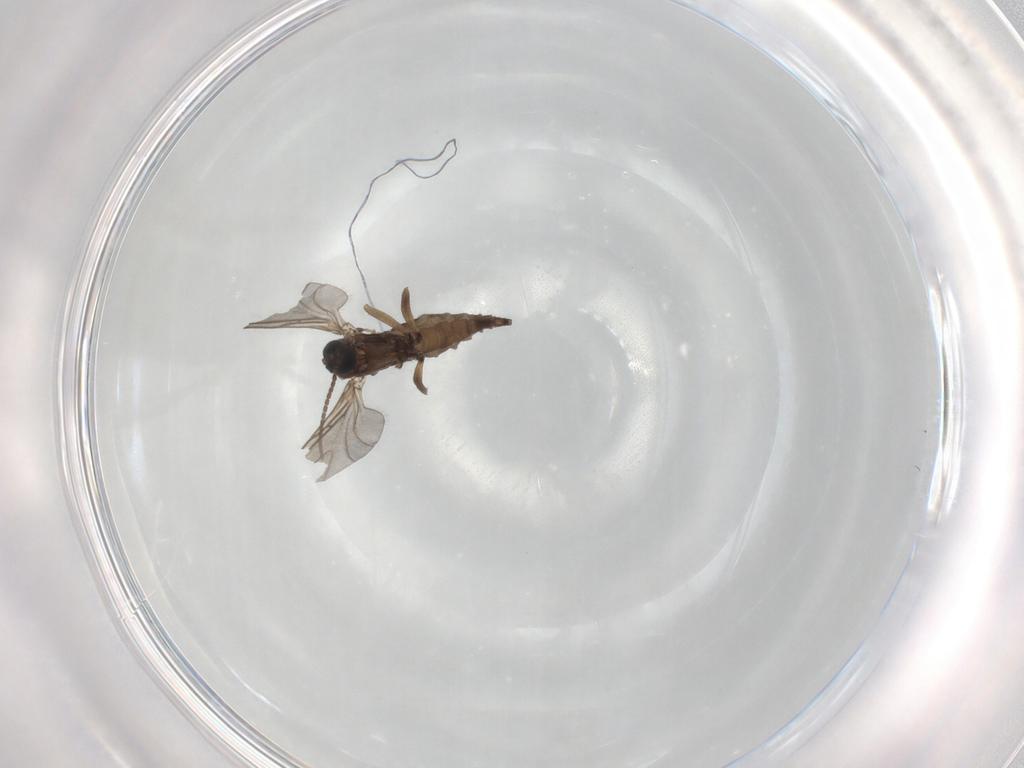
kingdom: Animalia
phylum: Arthropoda
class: Insecta
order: Diptera
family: Sciaridae
